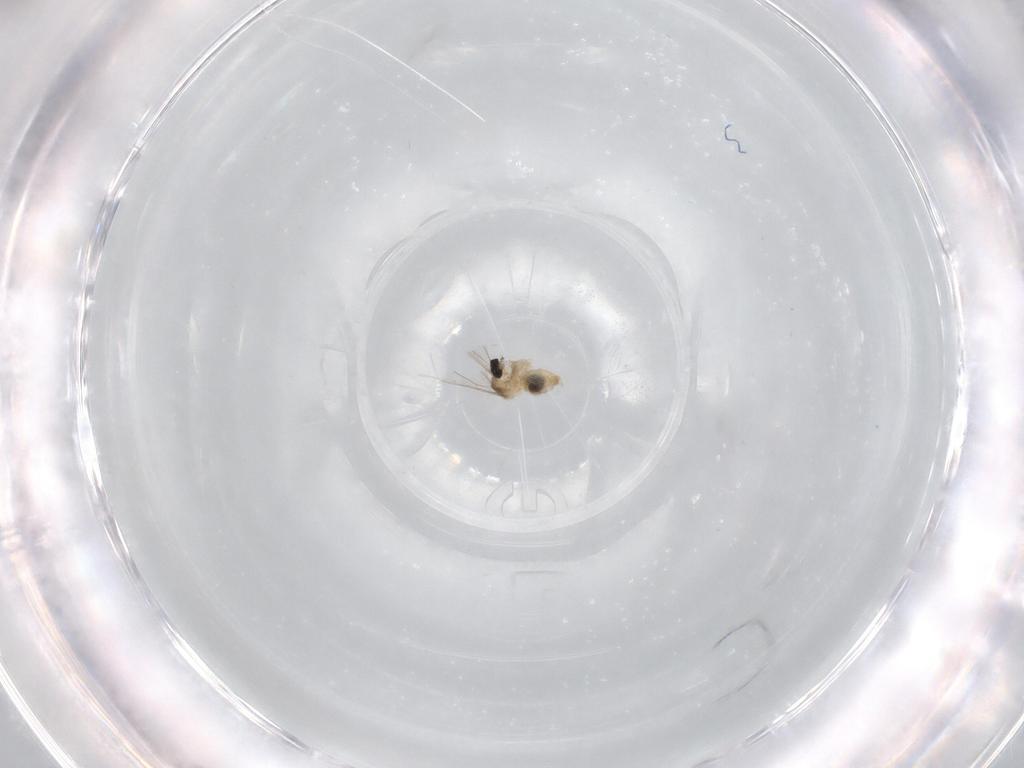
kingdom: Animalia
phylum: Arthropoda
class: Insecta
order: Diptera
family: Cecidomyiidae
